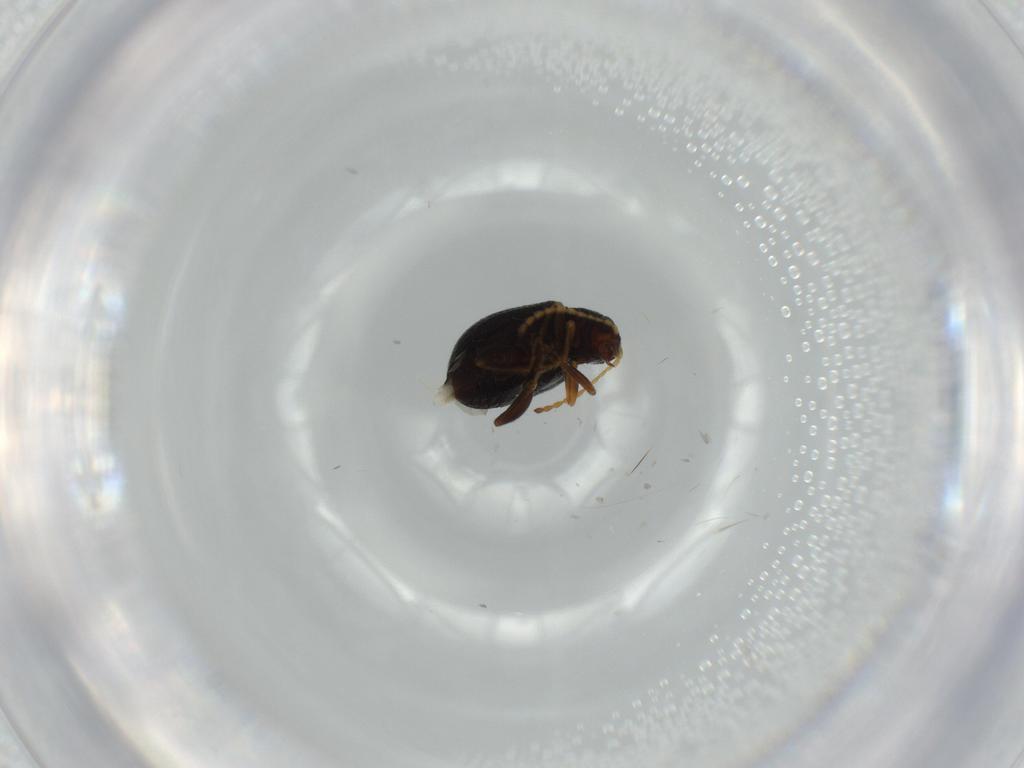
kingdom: Animalia
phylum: Arthropoda
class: Insecta
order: Coleoptera
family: Chrysomelidae
